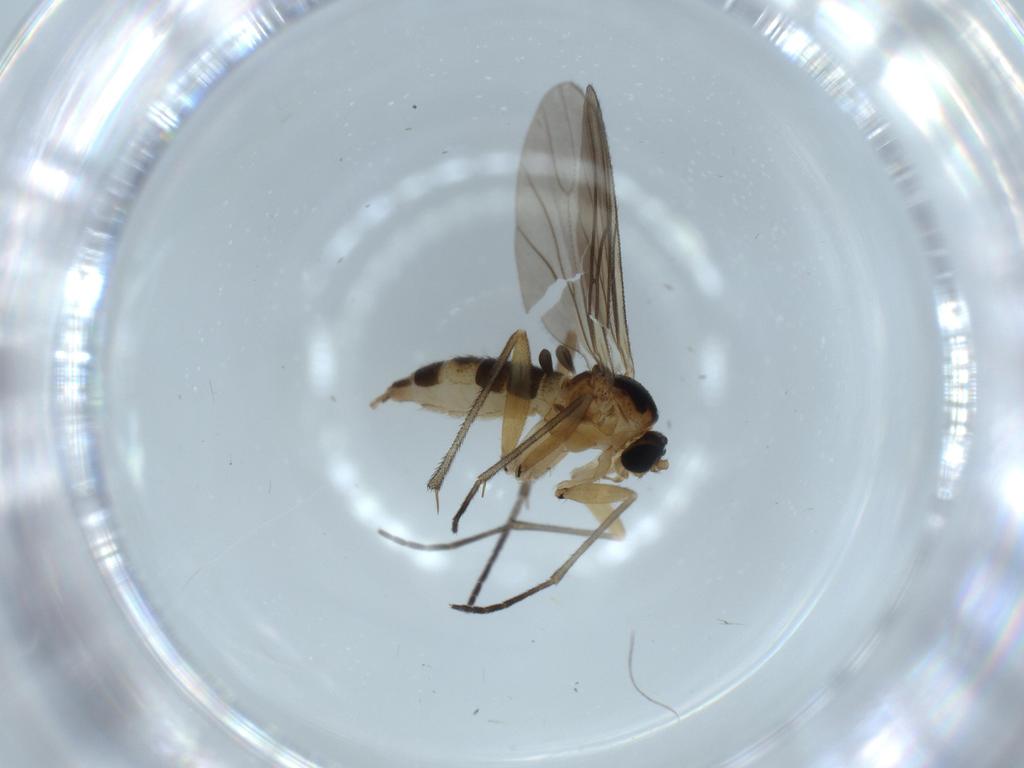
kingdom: Animalia
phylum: Arthropoda
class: Insecta
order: Diptera
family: Sciaridae
